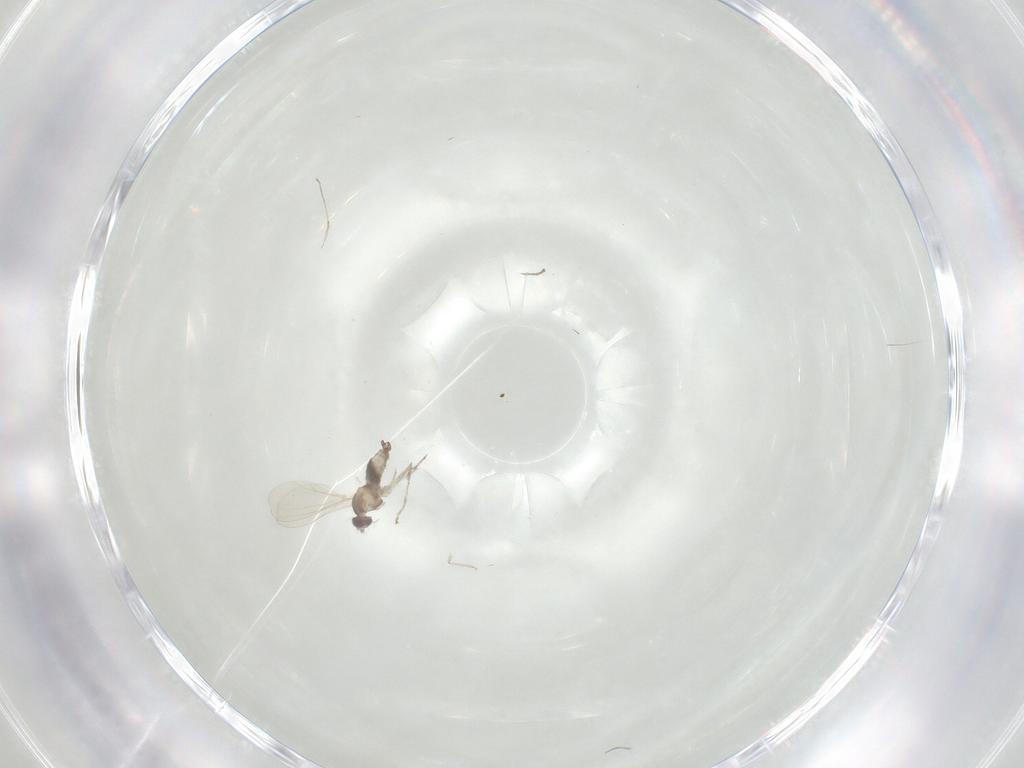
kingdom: Animalia
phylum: Arthropoda
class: Insecta
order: Diptera
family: Cecidomyiidae
